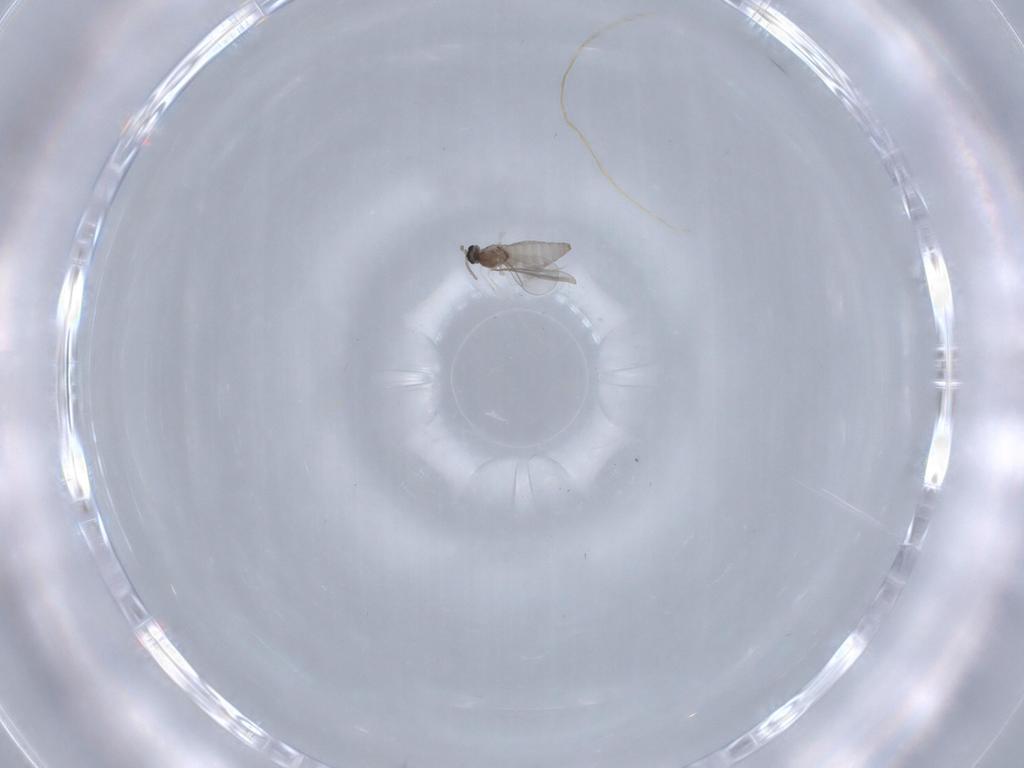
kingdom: Animalia
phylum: Arthropoda
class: Insecta
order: Diptera
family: Cecidomyiidae
